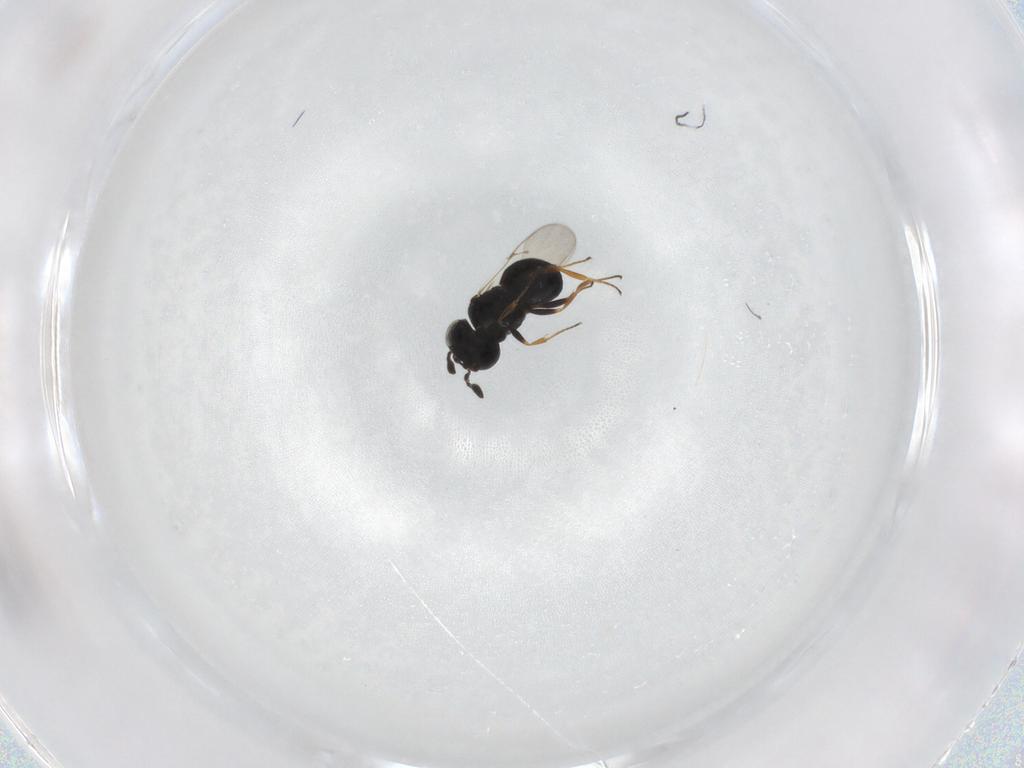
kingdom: Animalia
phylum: Arthropoda
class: Insecta
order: Hymenoptera
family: Scelionidae
